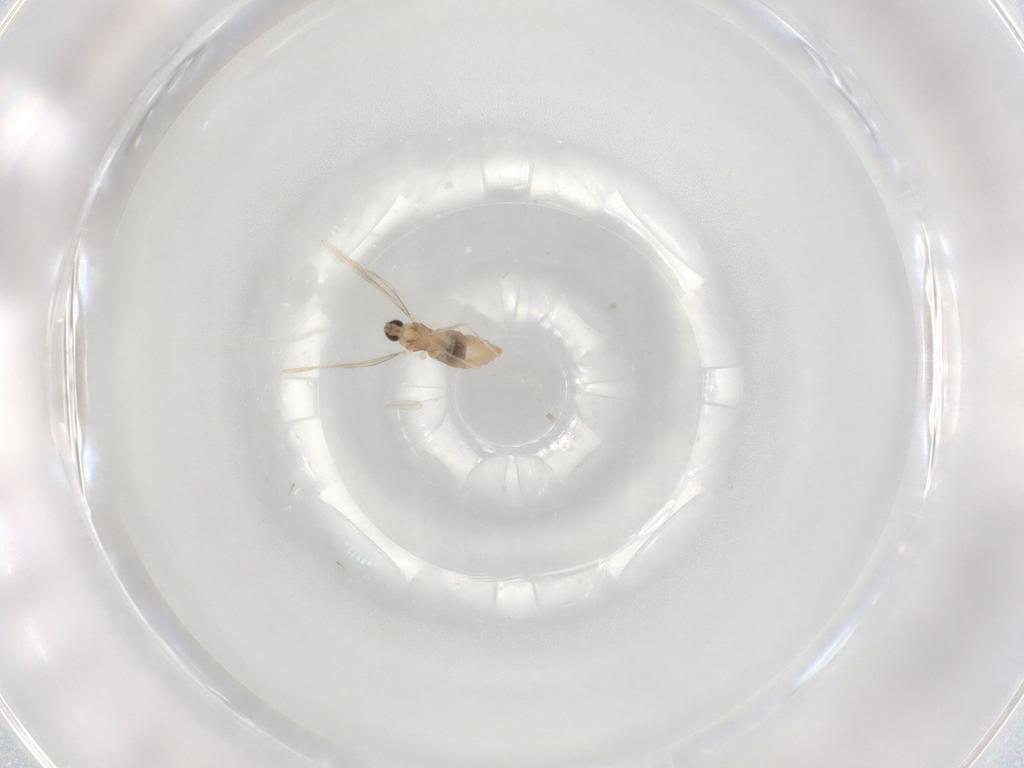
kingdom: Animalia
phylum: Arthropoda
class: Insecta
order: Diptera
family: Cecidomyiidae
